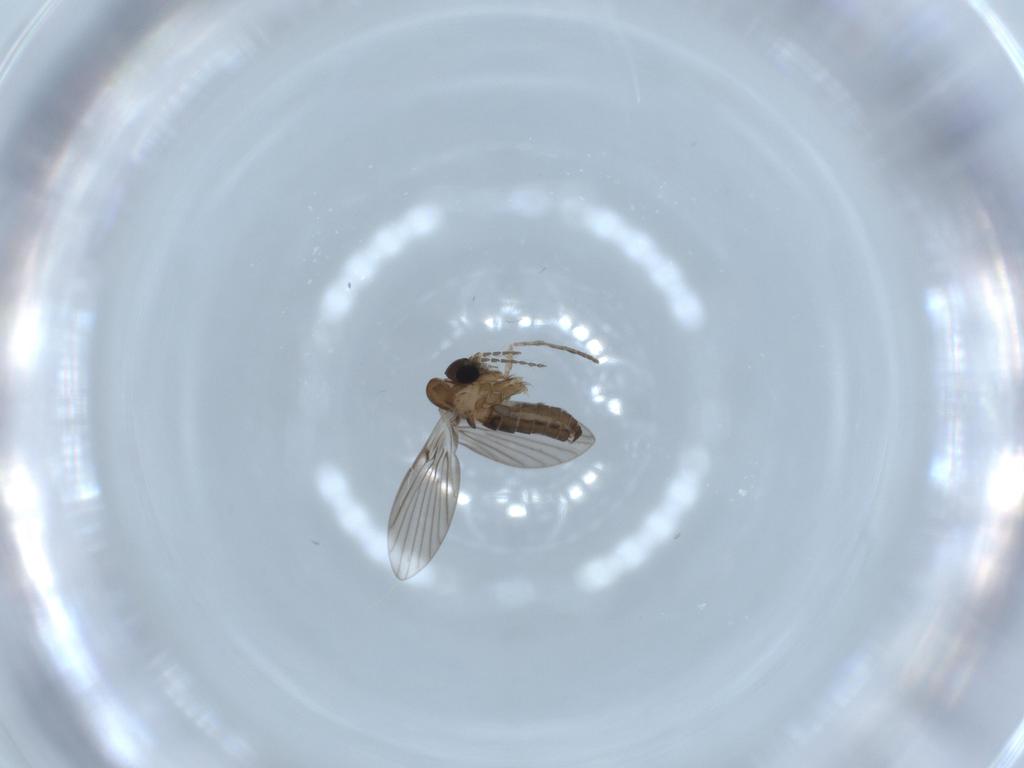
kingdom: Animalia
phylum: Arthropoda
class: Insecta
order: Diptera
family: Psychodidae
